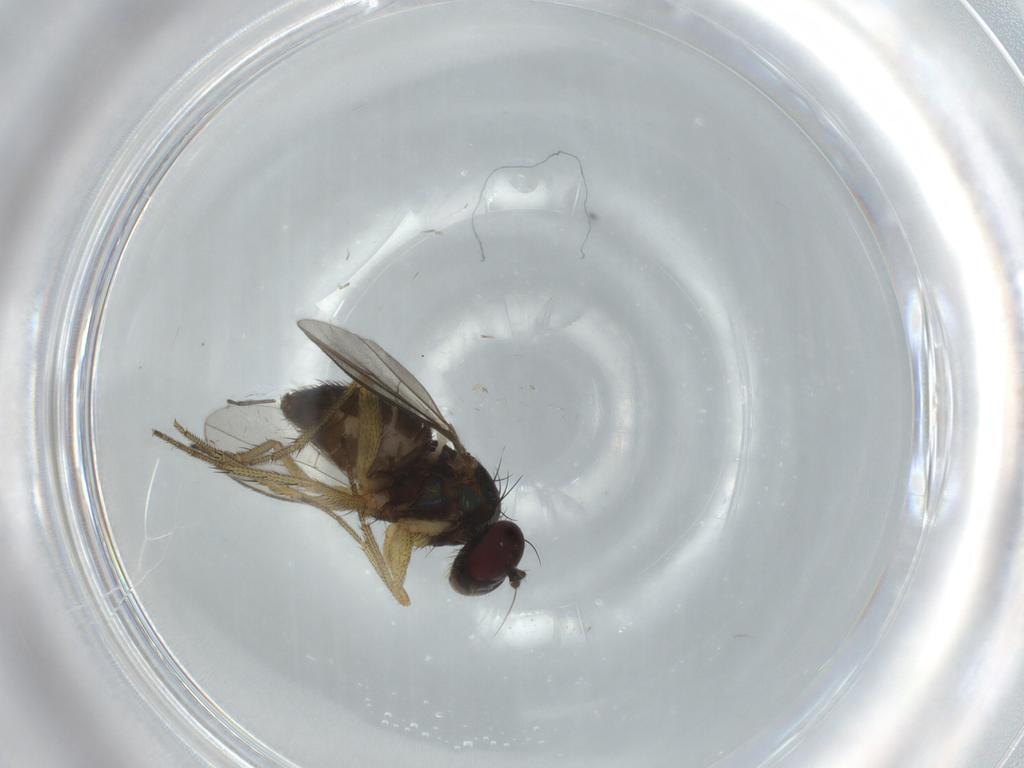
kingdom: Animalia
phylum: Arthropoda
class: Insecta
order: Diptera
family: Sciaridae
